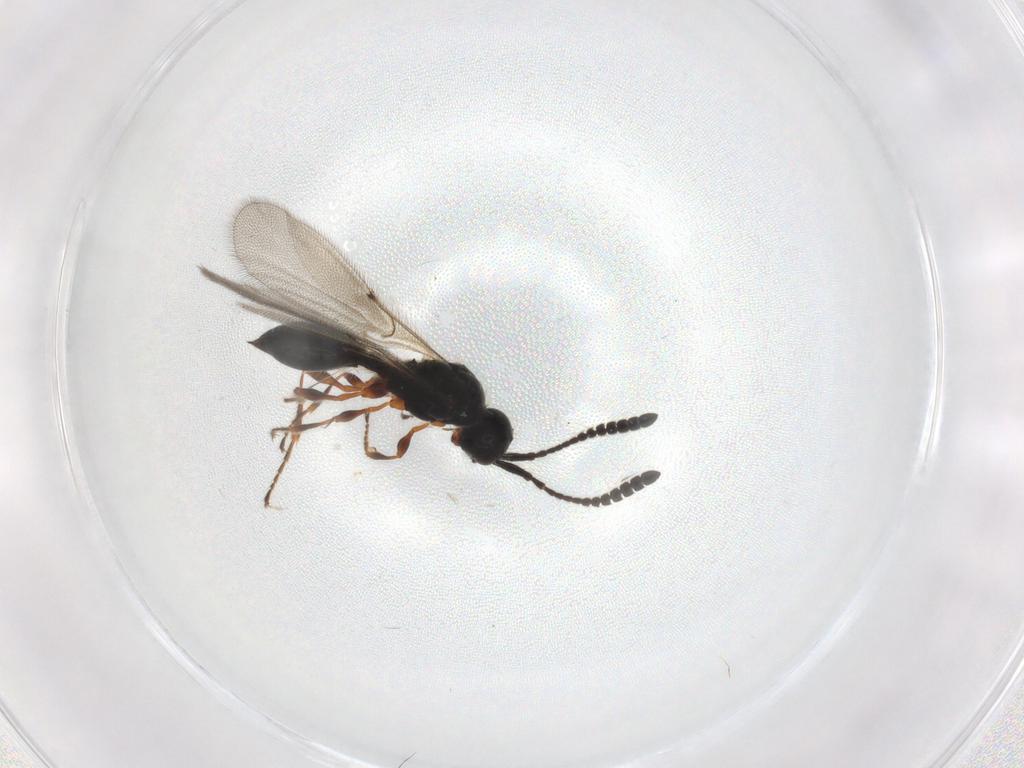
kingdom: Animalia
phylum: Arthropoda
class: Insecta
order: Hymenoptera
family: Diapriidae
